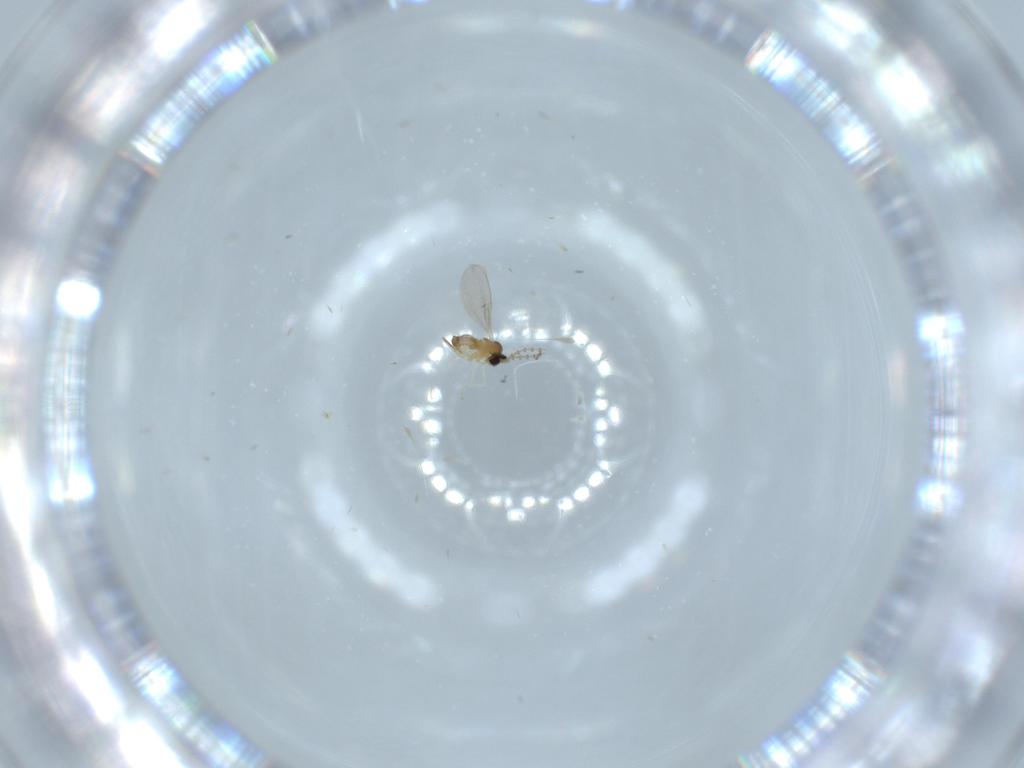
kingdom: Animalia
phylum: Arthropoda
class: Insecta
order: Diptera
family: Cecidomyiidae
